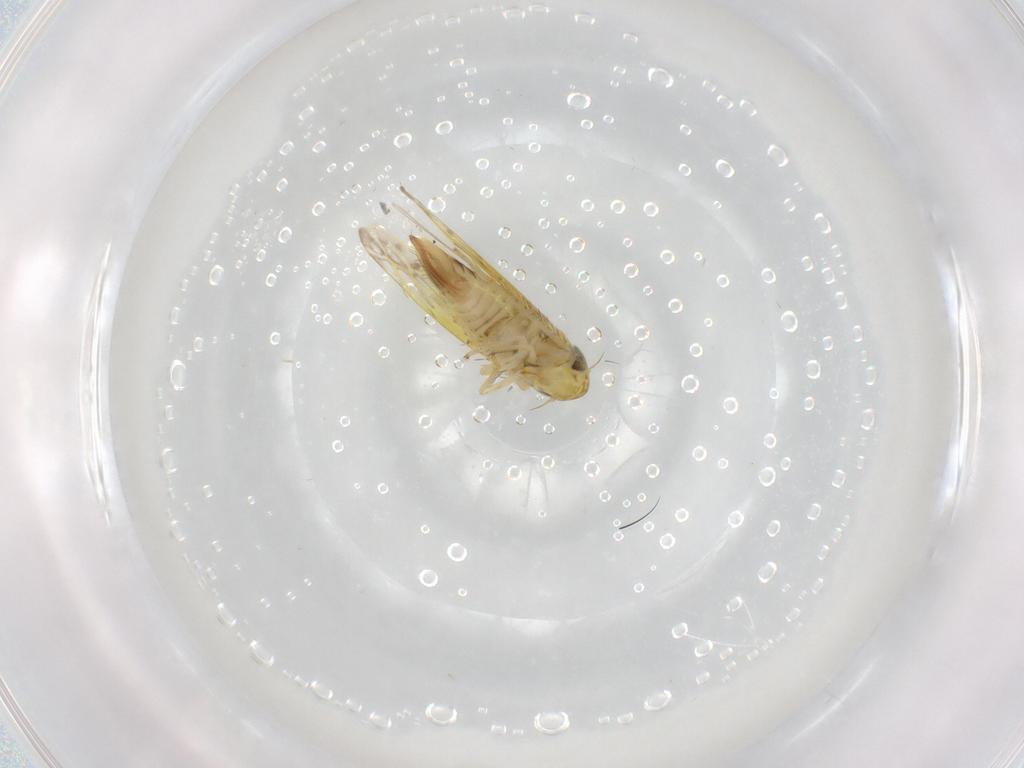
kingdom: Animalia
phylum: Arthropoda
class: Insecta
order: Hemiptera
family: Cicadellidae
